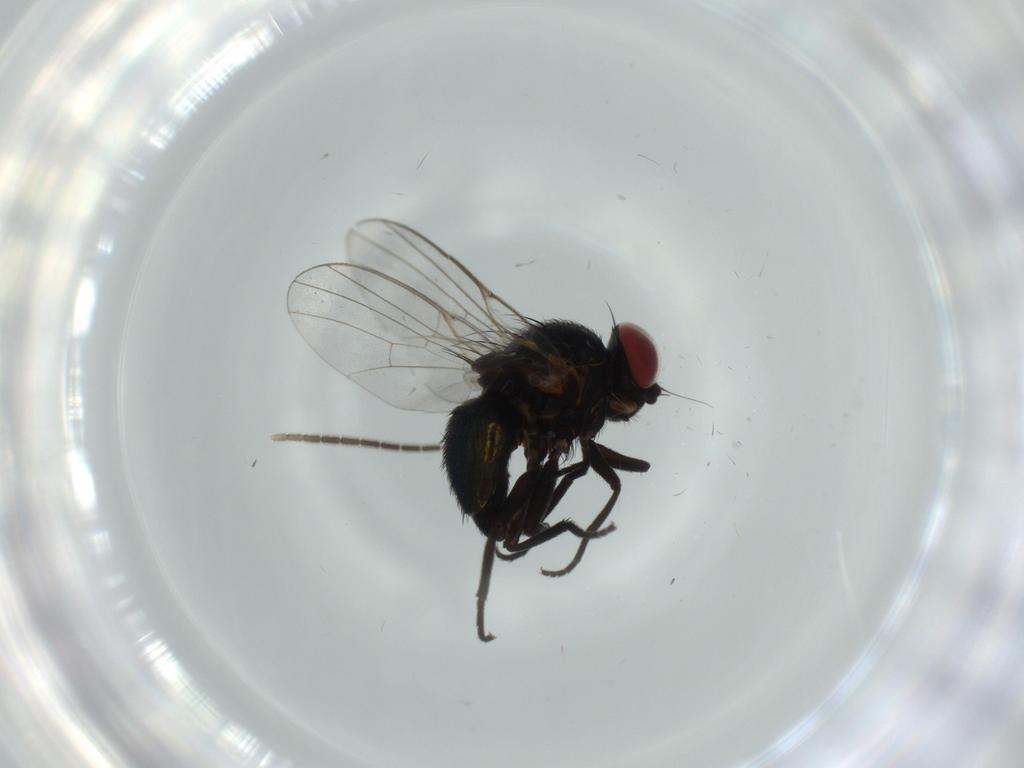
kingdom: Animalia
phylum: Arthropoda
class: Insecta
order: Diptera
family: Agromyzidae
